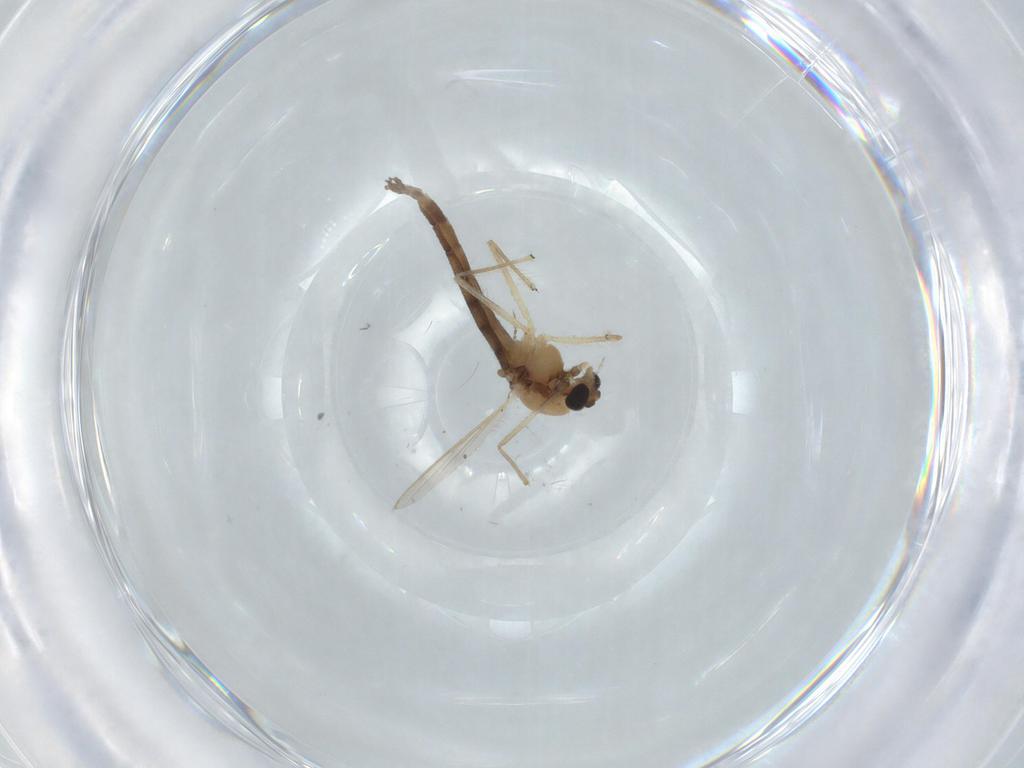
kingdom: Animalia
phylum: Arthropoda
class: Insecta
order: Diptera
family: Chironomidae
